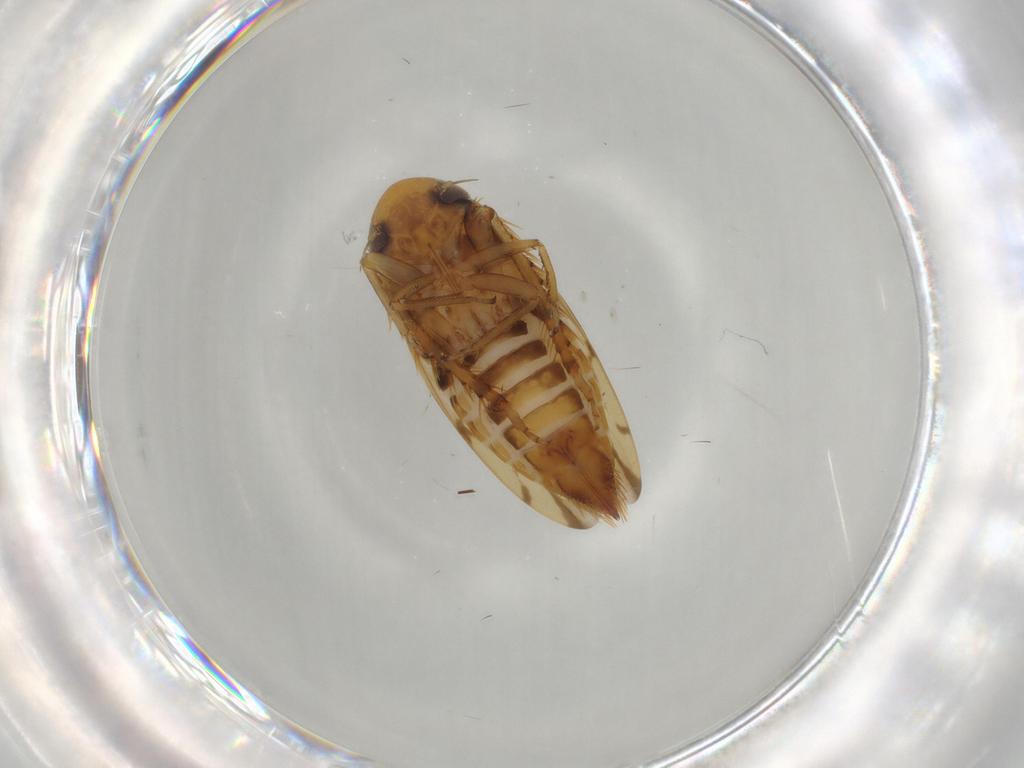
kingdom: Animalia
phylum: Arthropoda
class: Insecta
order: Hemiptera
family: Cicadellidae
